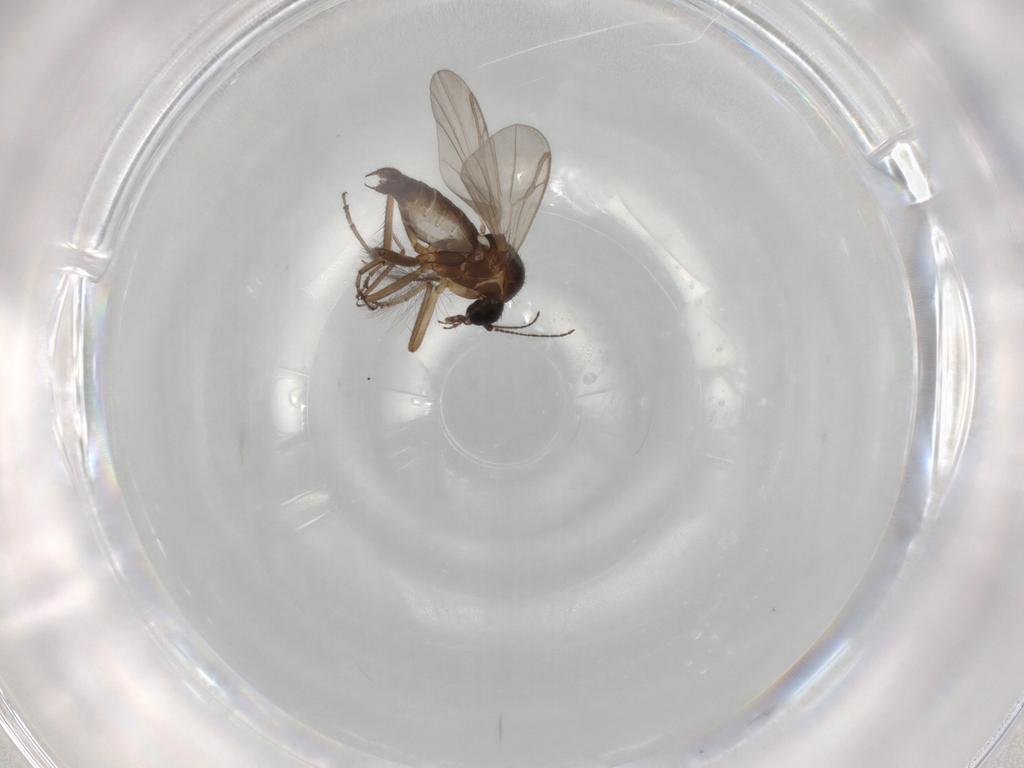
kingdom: Animalia
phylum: Arthropoda
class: Insecta
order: Diptera
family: Ceratopogonidae
